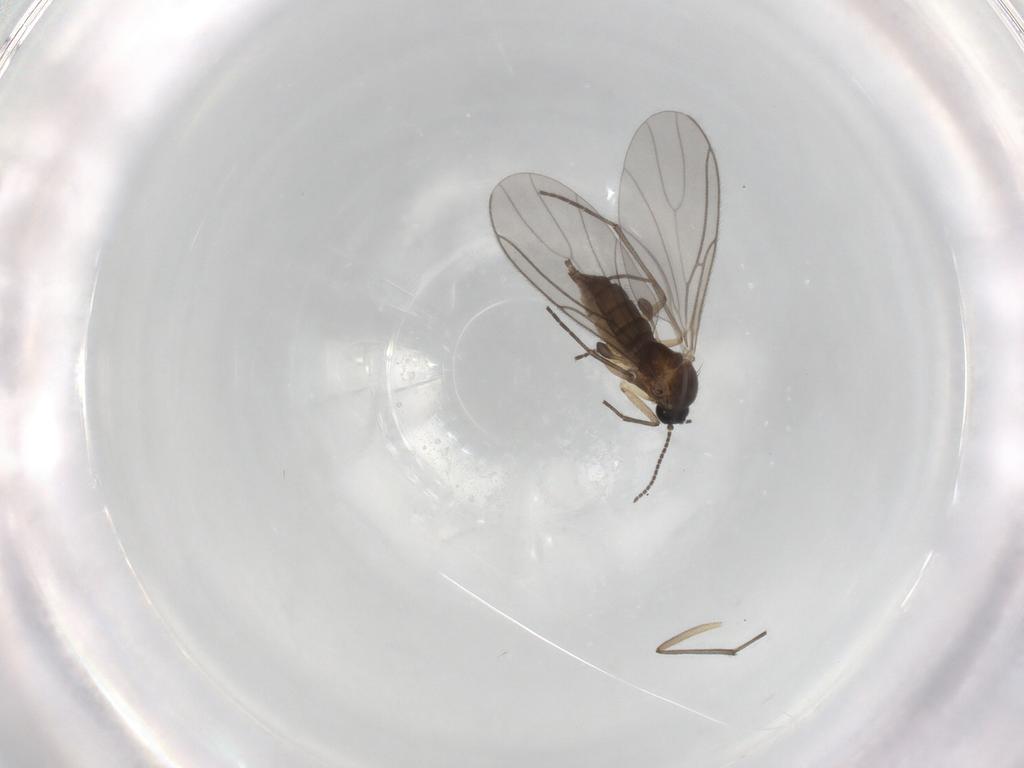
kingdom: Animalia
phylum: Arthropoda
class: Insecta
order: Diptera
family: Sciaridae
